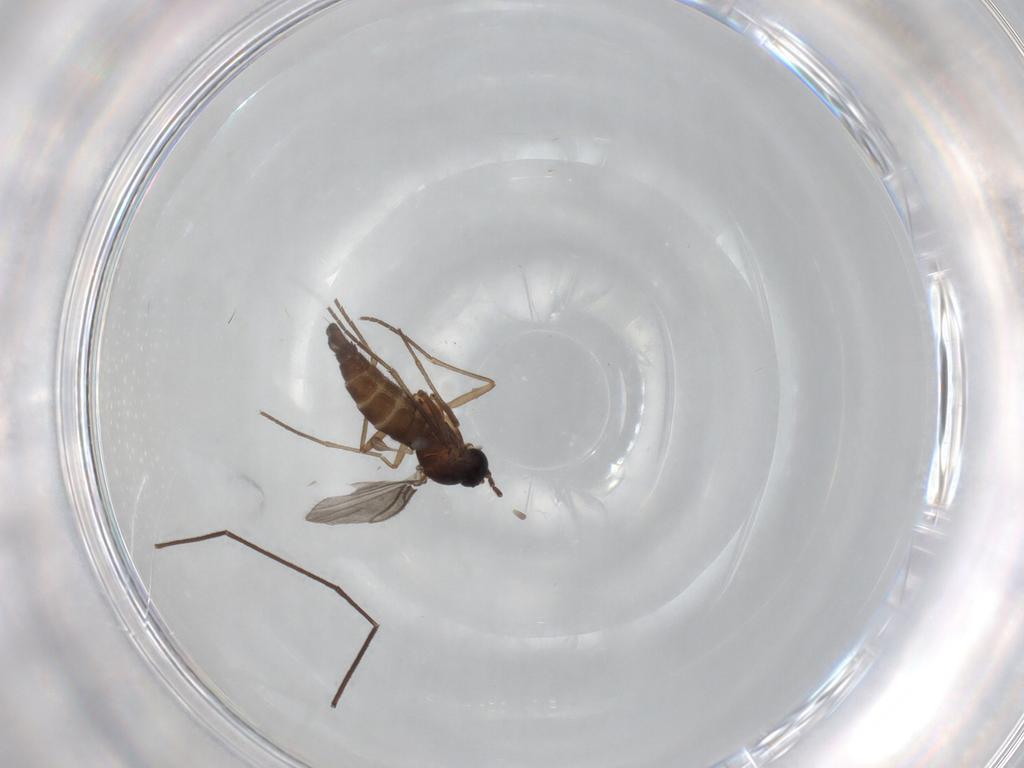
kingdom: Animalia
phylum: Arthropoda
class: Insecta
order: Diptera
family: Sciaridae
